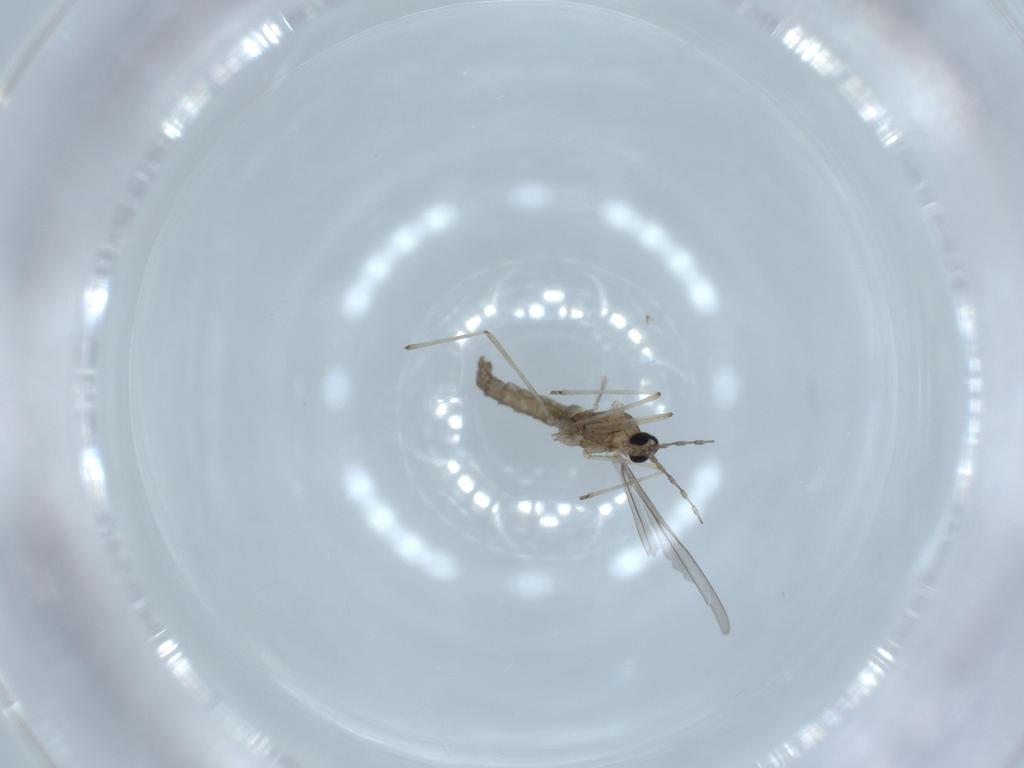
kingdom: Animalia
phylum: Arthropoda
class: Insecta
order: Diptera
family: Cecidomyiidae
